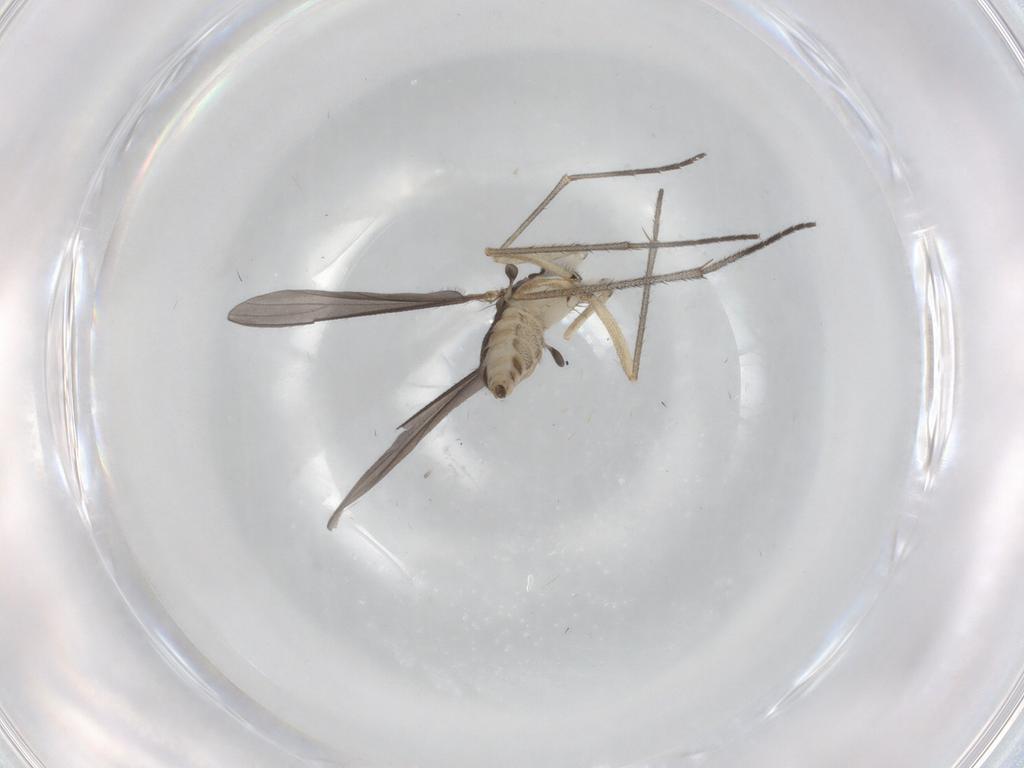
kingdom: Animalia
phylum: Arthropoda
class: Insecta
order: Diptera
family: Sciaridae
